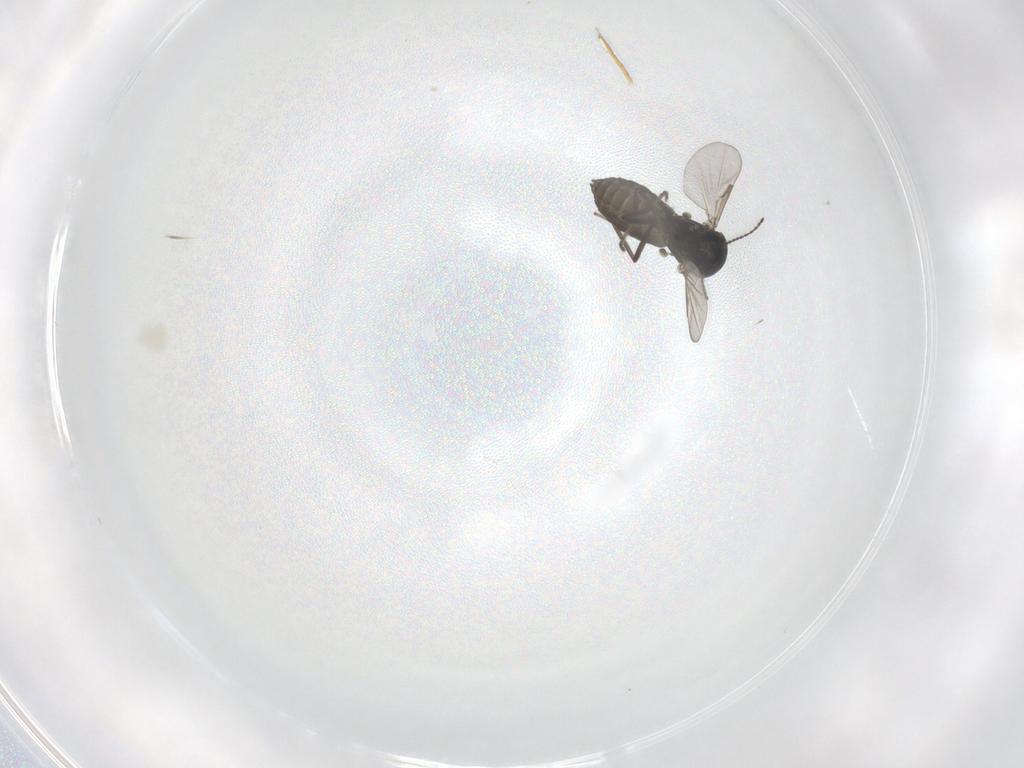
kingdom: Animalia
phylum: Arthropoda
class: Insecta
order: Diptera
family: Ceratopogonidae
